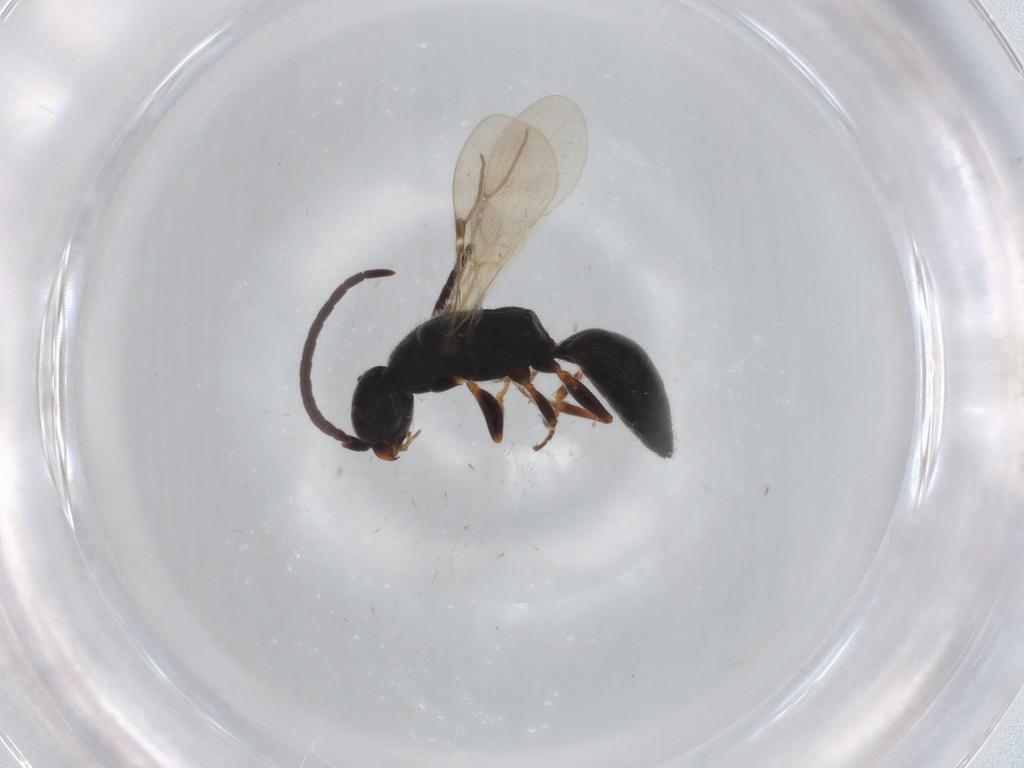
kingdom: Animalia
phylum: Arthropoda
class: Insecta
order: Hymenoptera
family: Bethylidae
